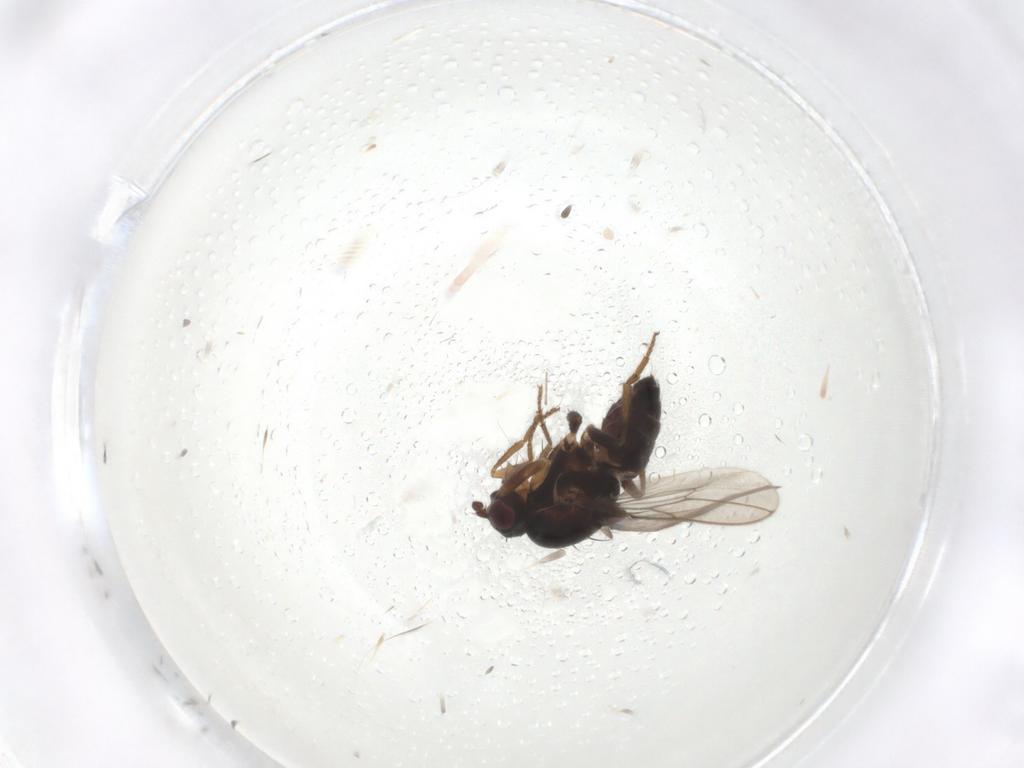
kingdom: Animalia
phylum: Arthropoda
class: Insecta
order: Diptera
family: Sphaeroceridae
